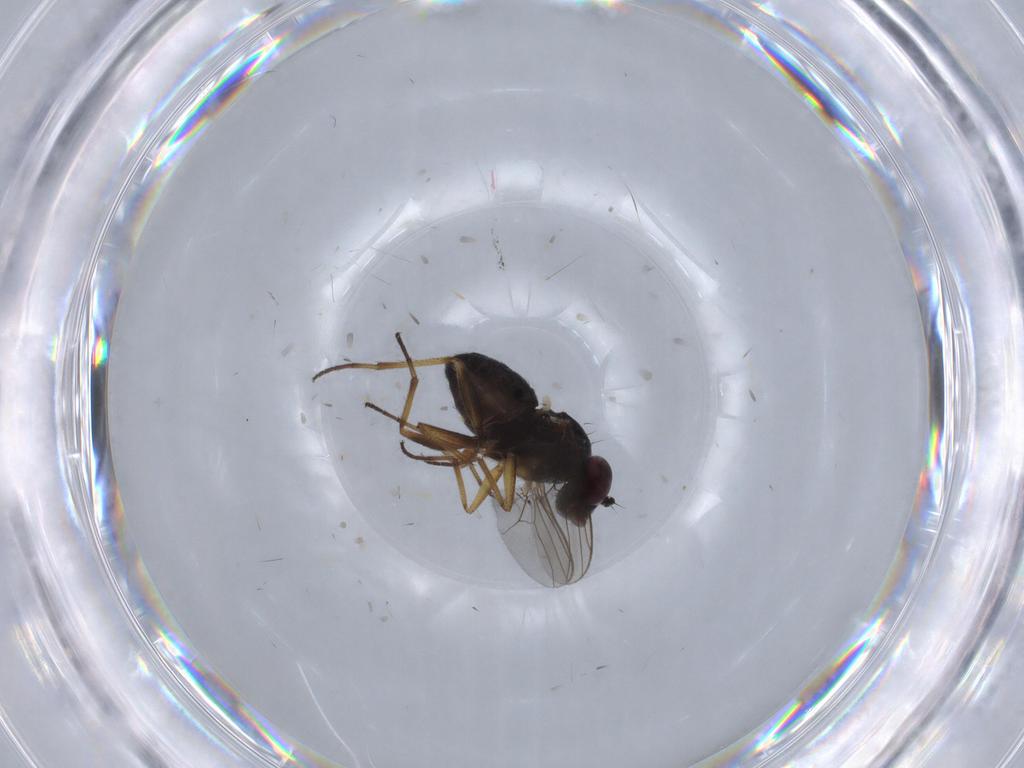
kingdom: Animalia
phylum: Arthropoda
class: Insecta
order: Diptera
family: Dolichopodidae
